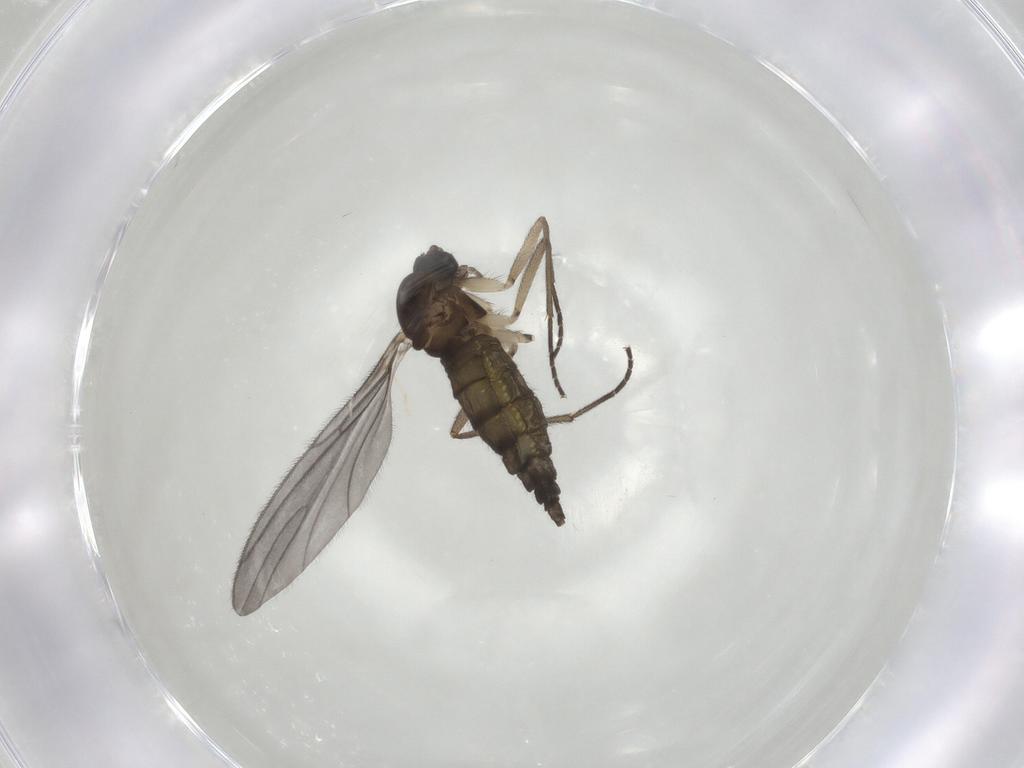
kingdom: Animalia
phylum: Arthropoda
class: Insecta
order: Diptera
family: Sciaridae
